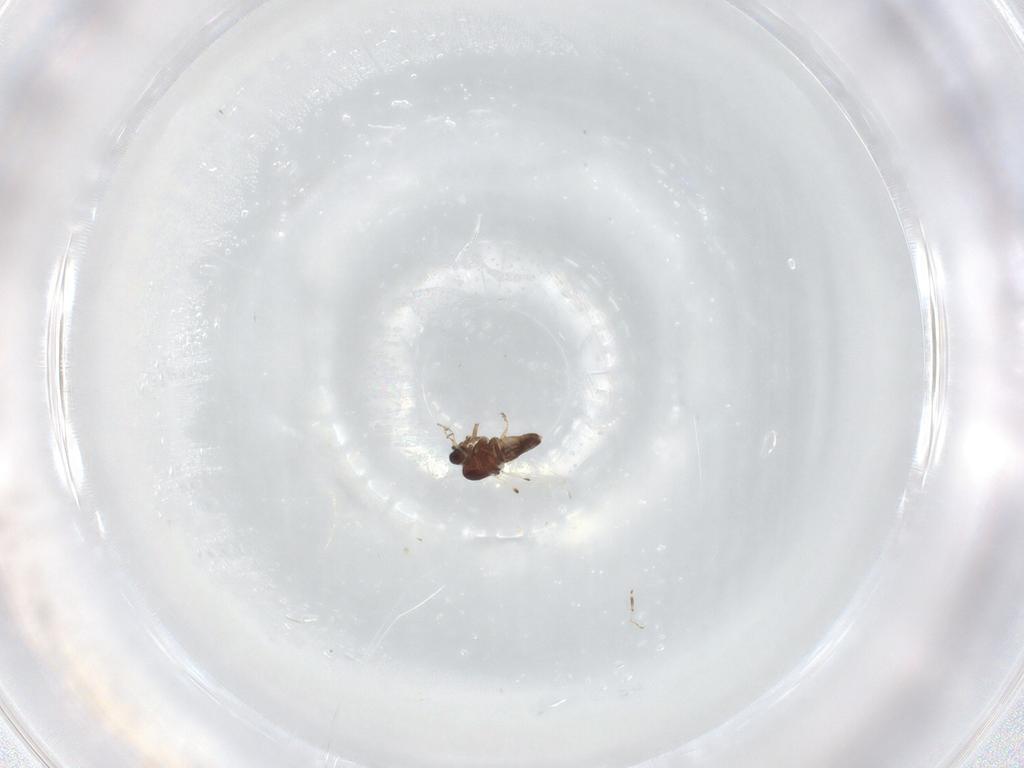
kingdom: Animalia
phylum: Arthropoda
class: Insecta
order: Diptera
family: Ceratopogonidae
